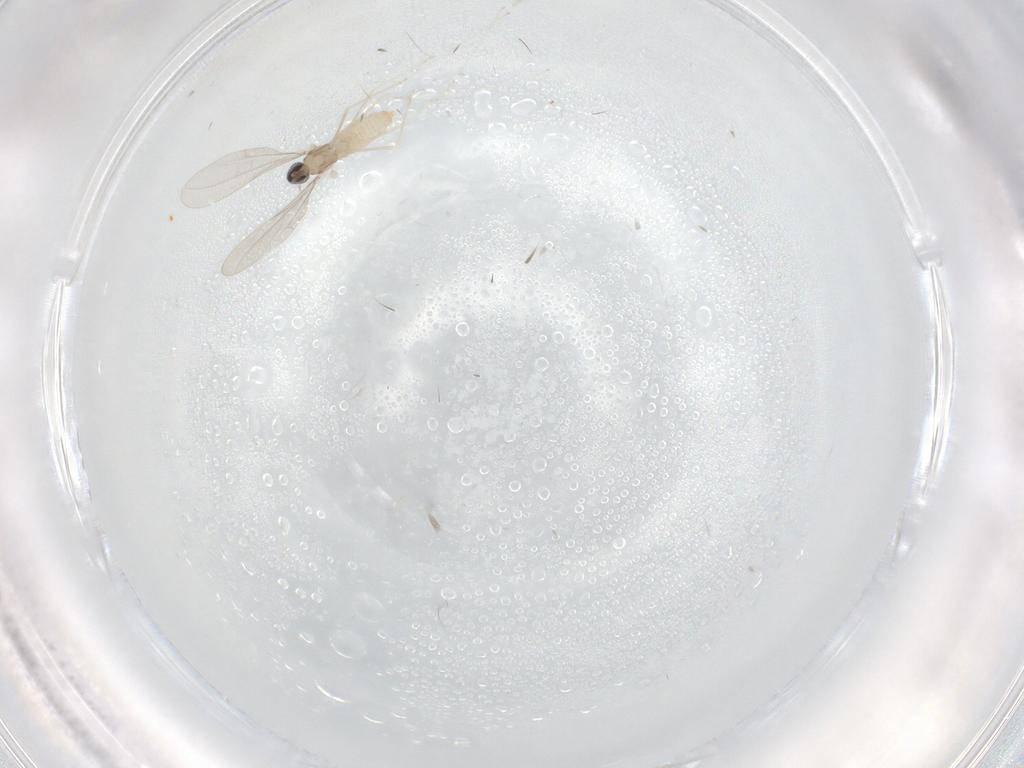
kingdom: Animalia
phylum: Arthropoda
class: Insecta
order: Diptera
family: Cecidomyiidae
